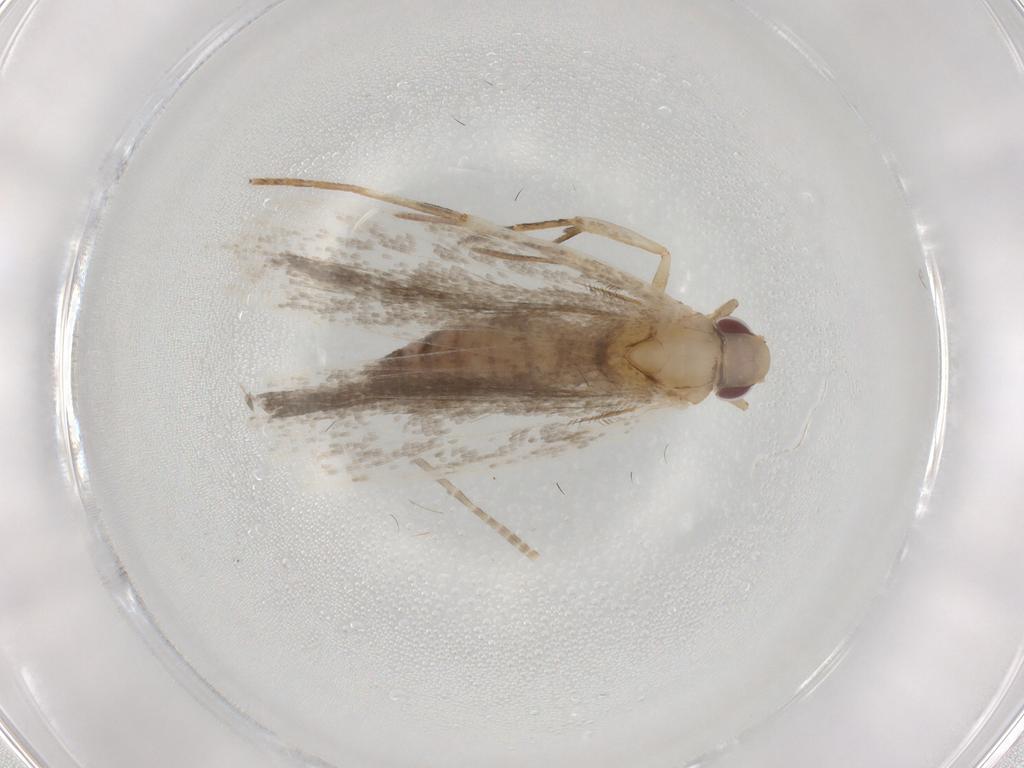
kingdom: Animalia
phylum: Arthropoda
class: Insecta
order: Lepidoptera
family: Gelechiidae
